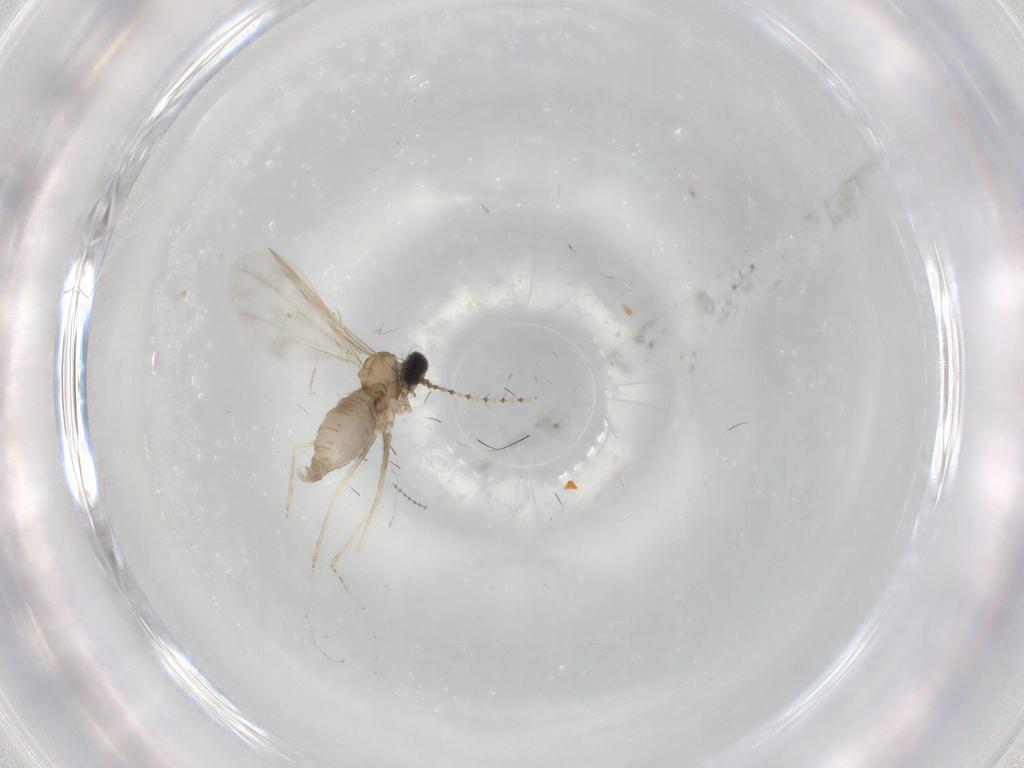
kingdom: Animalia
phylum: Arthropoda
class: Insecta
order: Diptera
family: Cecidomyiidae
